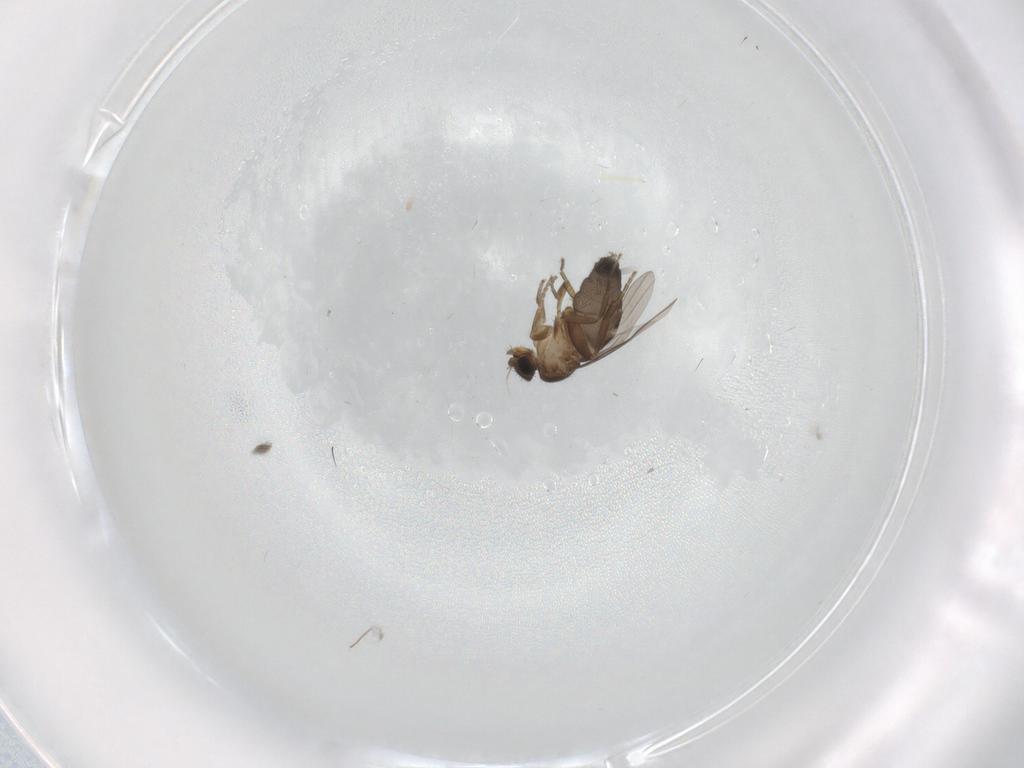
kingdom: Animalia
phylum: Arthropoda
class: Insecta
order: Diptera
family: Phoridae
